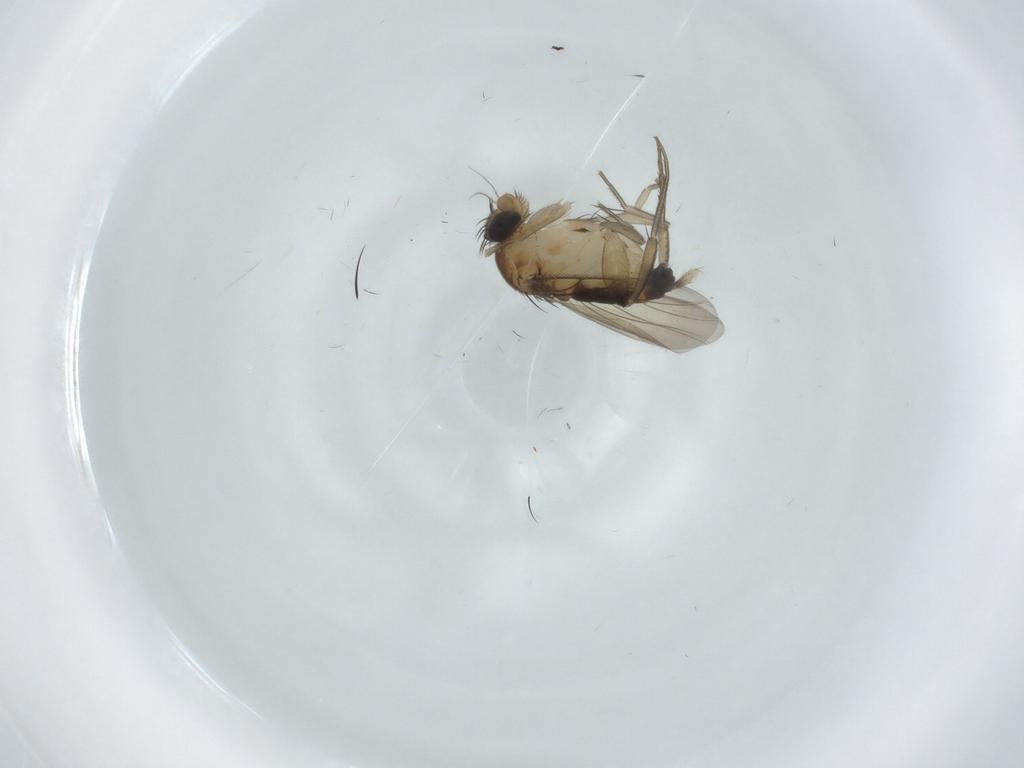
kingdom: Animalia
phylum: Arthropoda
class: Insecta
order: Diptera
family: Phoridae
